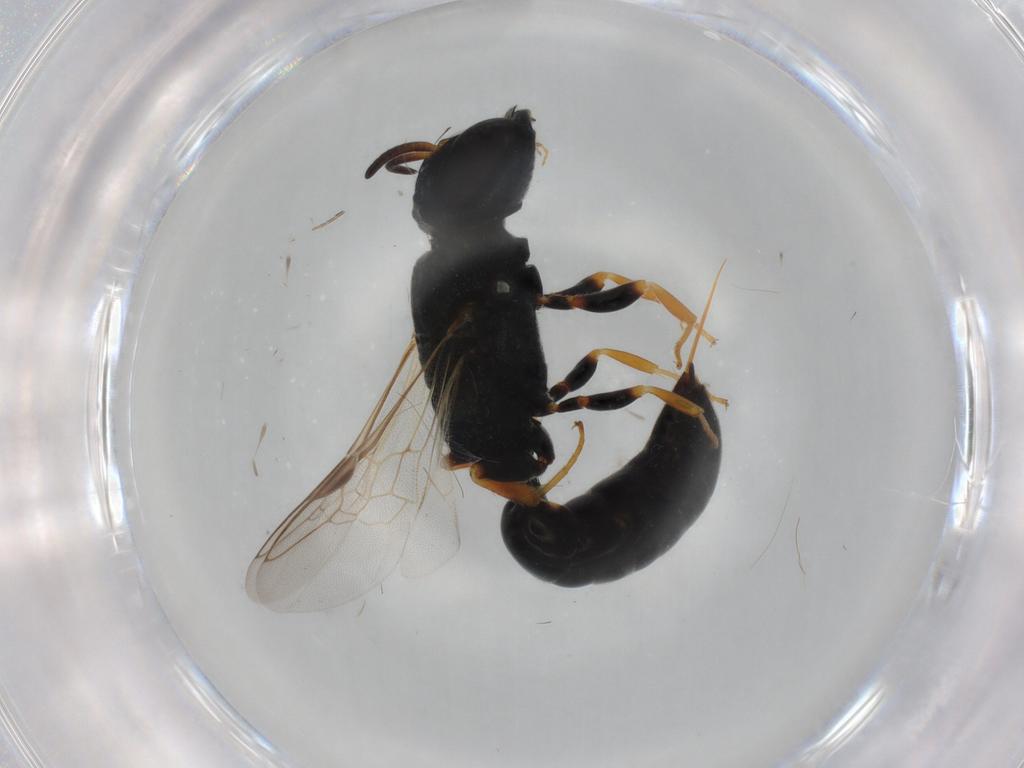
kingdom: Animalia
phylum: Arthropoda
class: Insecta
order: Hymenoptera
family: Crabronidae
